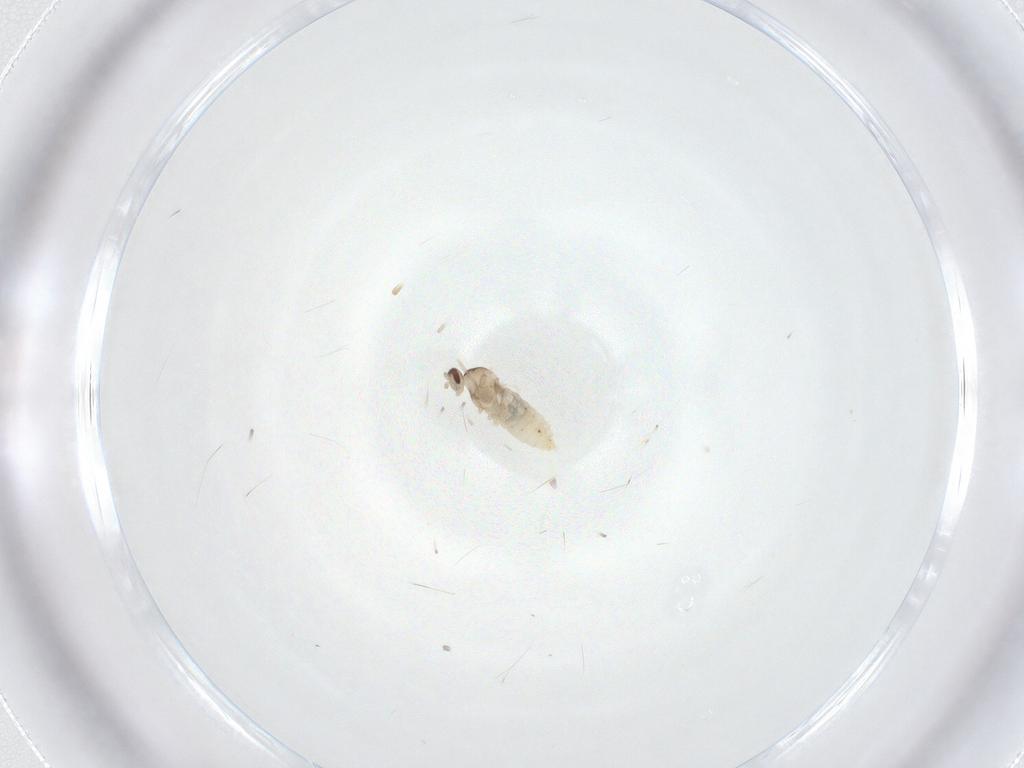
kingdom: Animalia
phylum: Arthropoda
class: Insecta
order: Diptera
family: Cecidomyiidae
